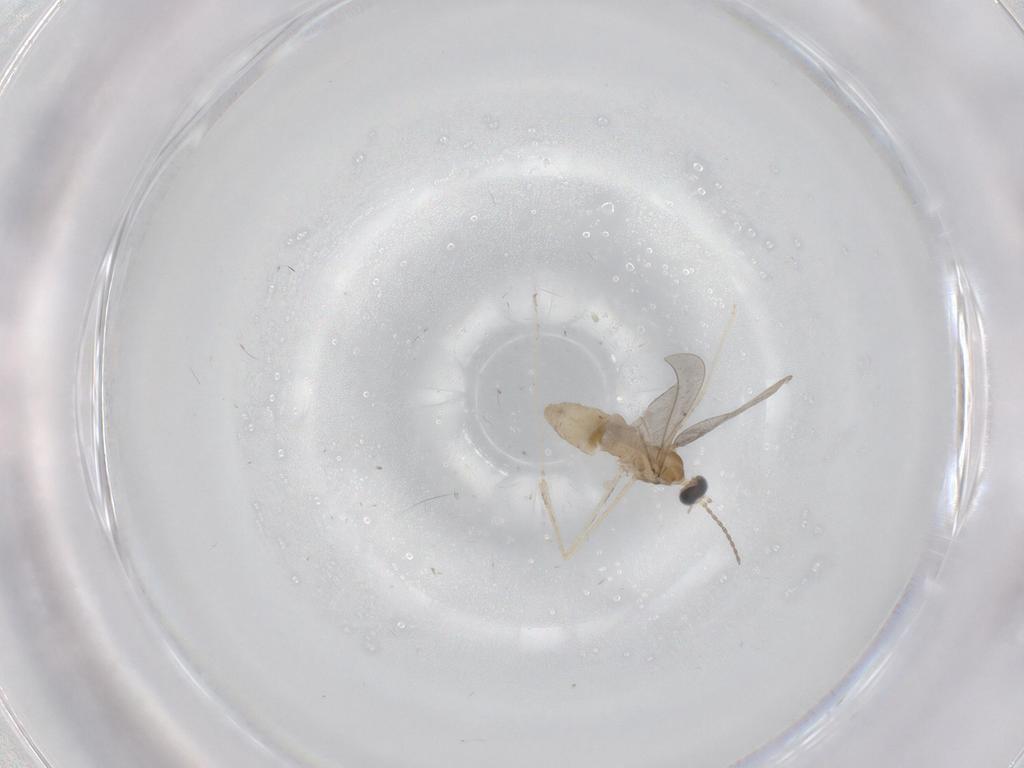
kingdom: Animalia
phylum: Arthropoda
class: Insecta
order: Diptera
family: Cecidomyiidae
